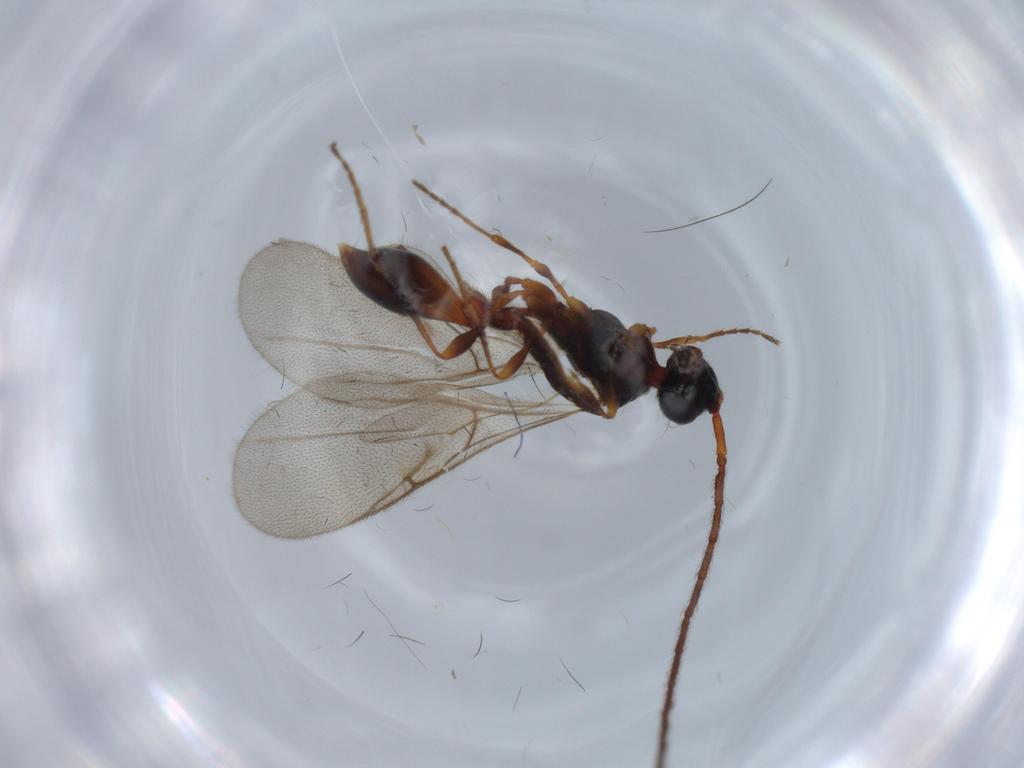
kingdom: Animalia
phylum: Arthropoda
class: Insecta
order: Hymenoptera
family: Diapriidae
